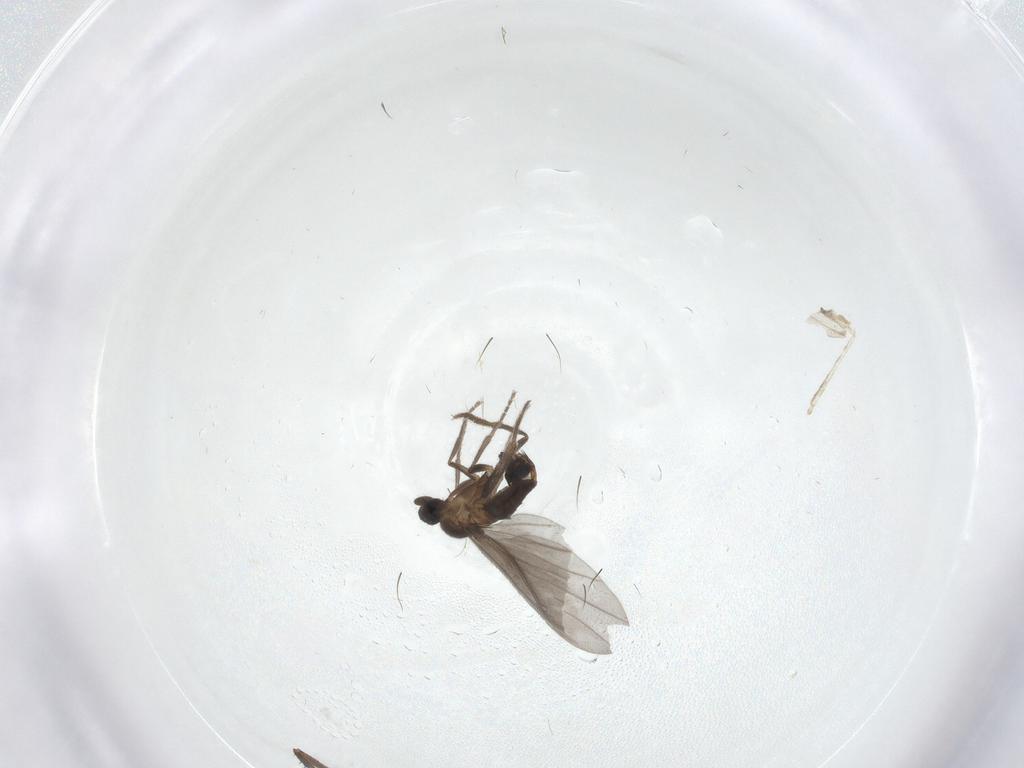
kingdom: Animalia
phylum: Arthropoda
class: Insecta
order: Diptera
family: Phoridae
